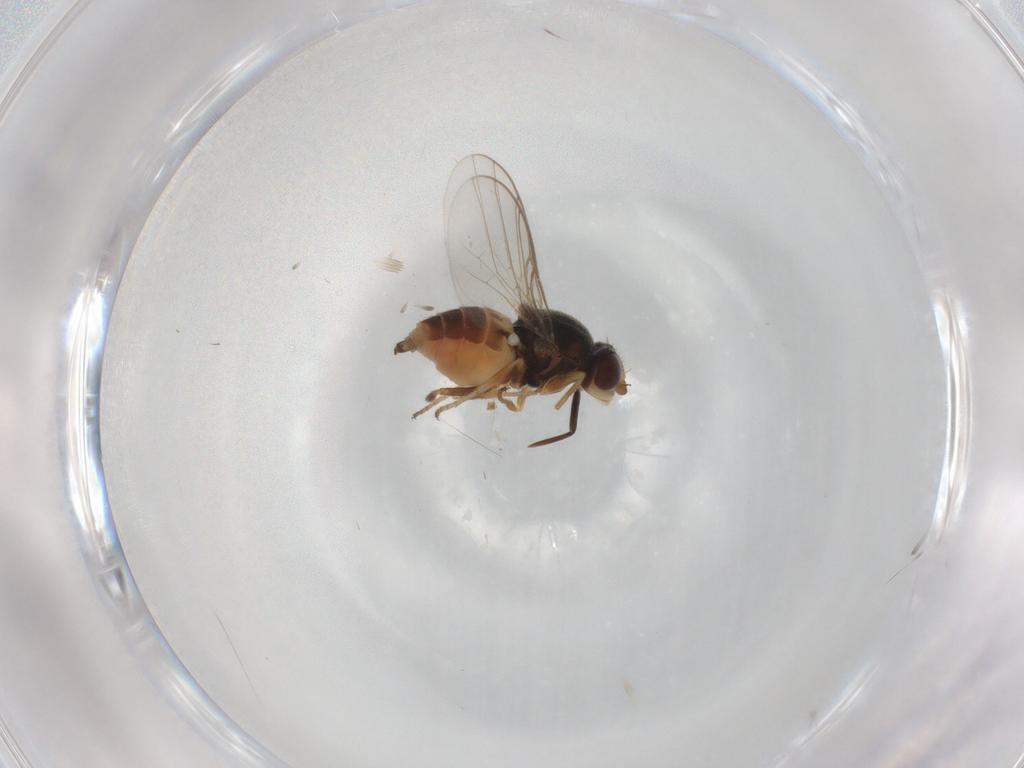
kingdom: Animalia
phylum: Arthropoda
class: Insecta
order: Diptera
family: Chloropidae
